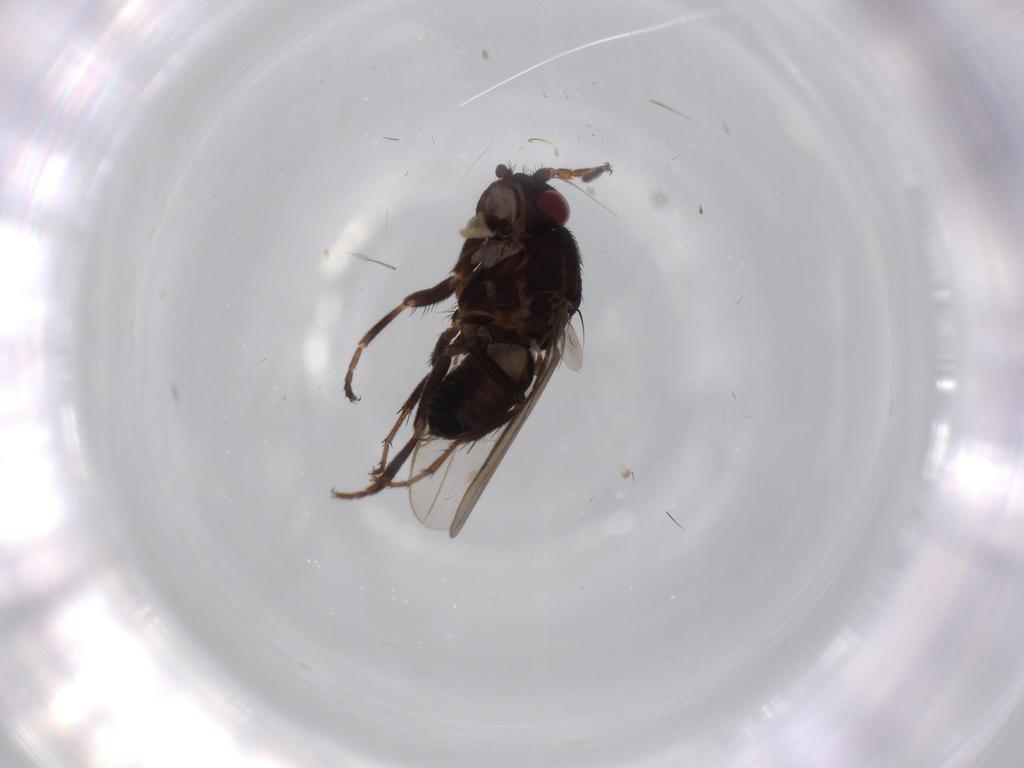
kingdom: Animalia
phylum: Arthropoda
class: Insecta
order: Diptera
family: Sphaeroceridae
